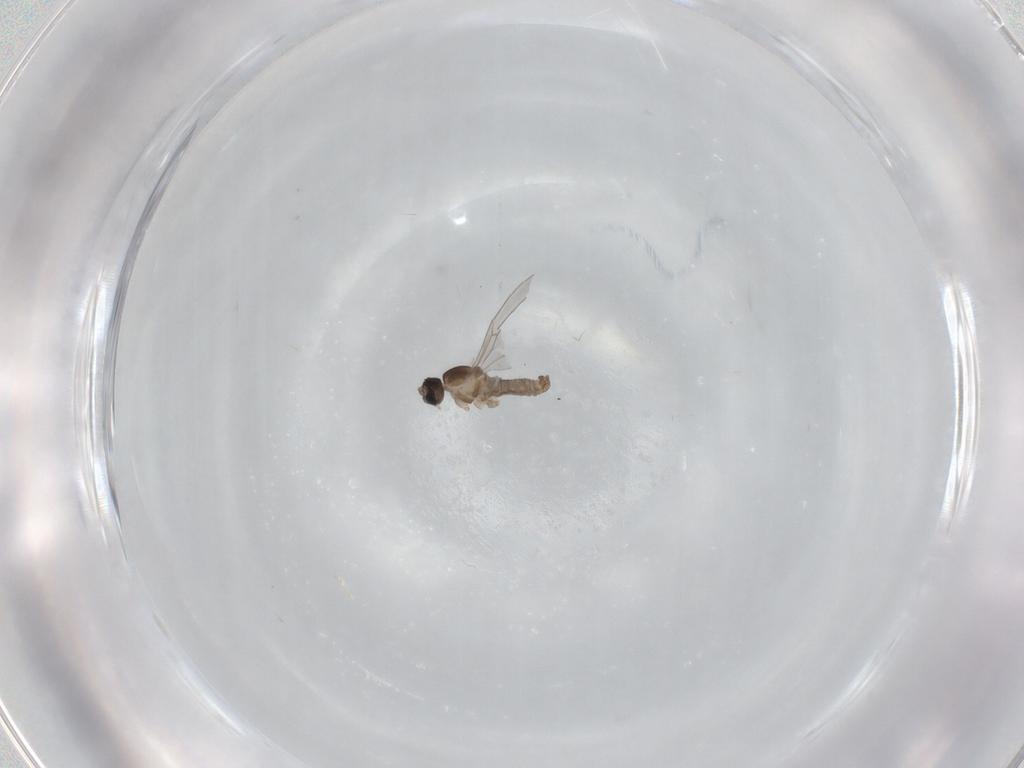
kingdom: Animalia
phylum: Arthropoda
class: Insecta
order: Diptera
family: Cecidomyiidae
